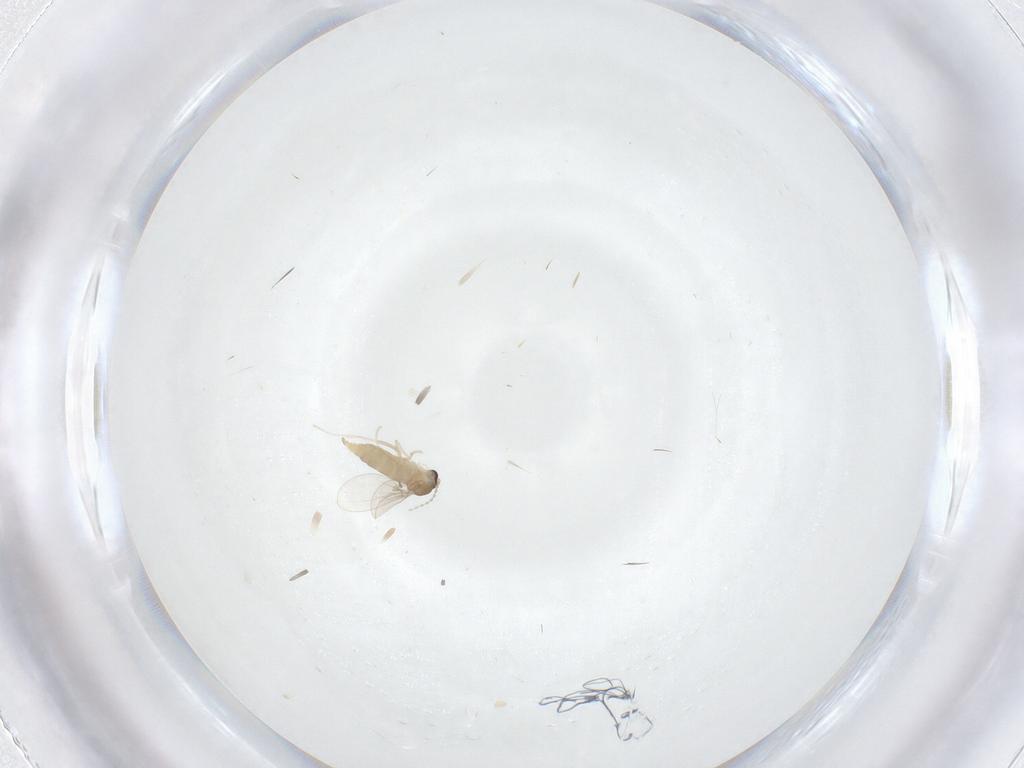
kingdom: Animalia
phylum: Arthropoda
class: Insecta
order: Diptera
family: Cecidomyiidae
